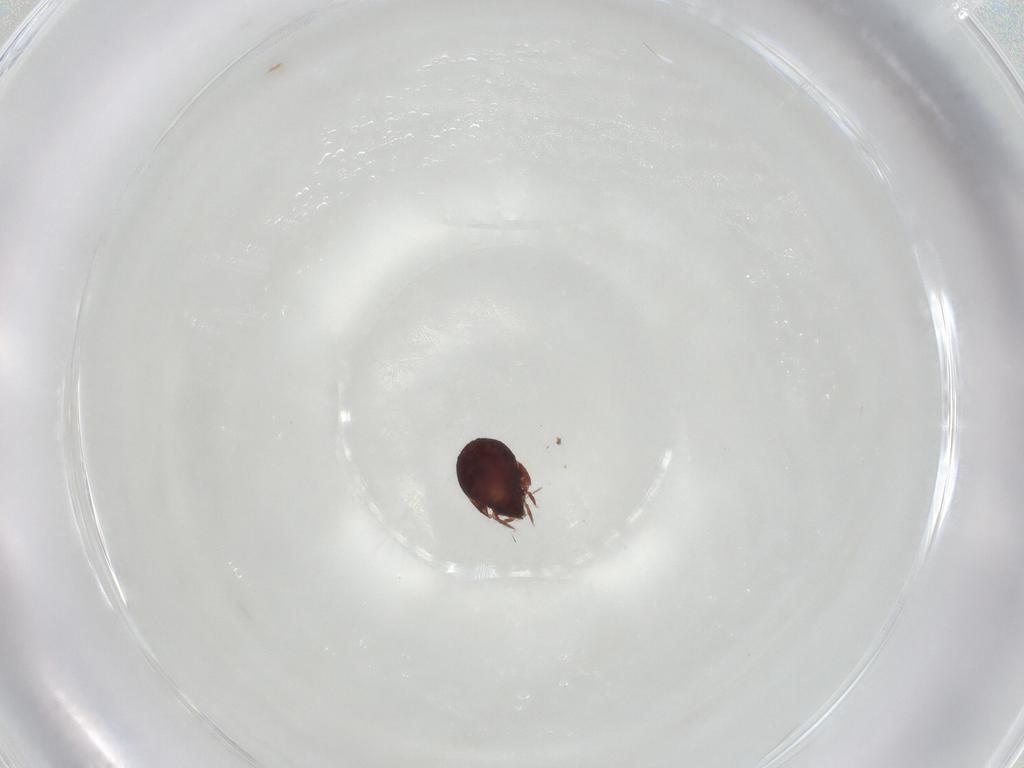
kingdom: Animalia
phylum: Arthropoda
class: Arachnida
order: Sarcoptiformes
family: Humerobatidae
